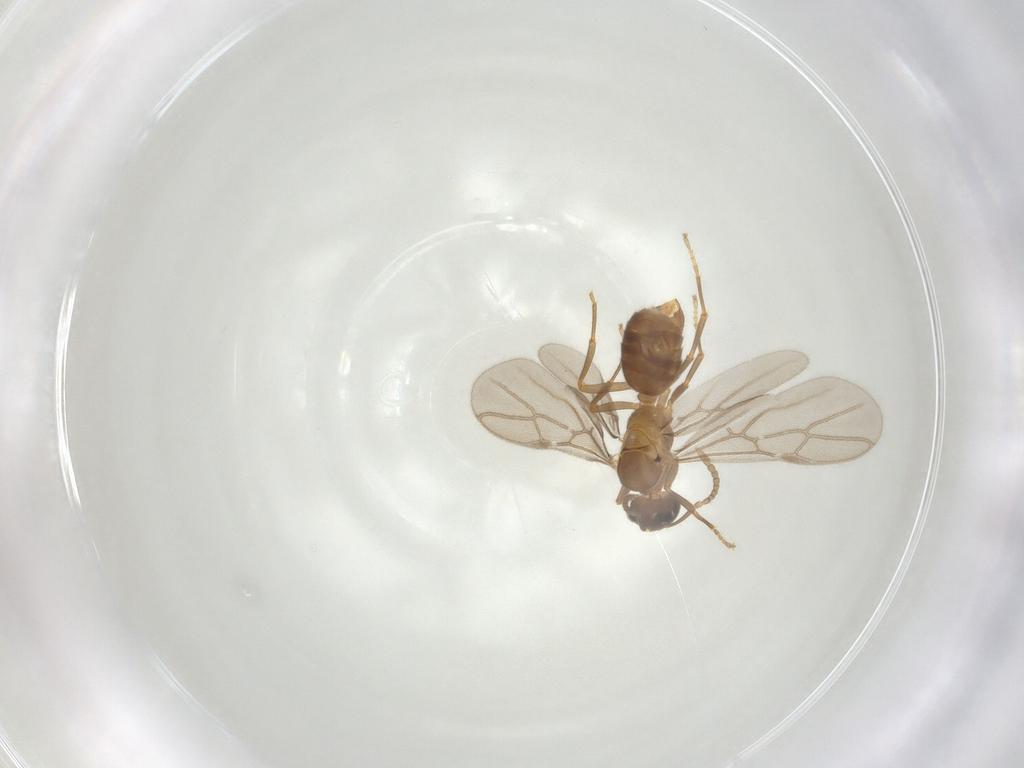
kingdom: Animalia
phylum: Arthropoda
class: Insecta
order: Hymenoptera
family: Formicidae
